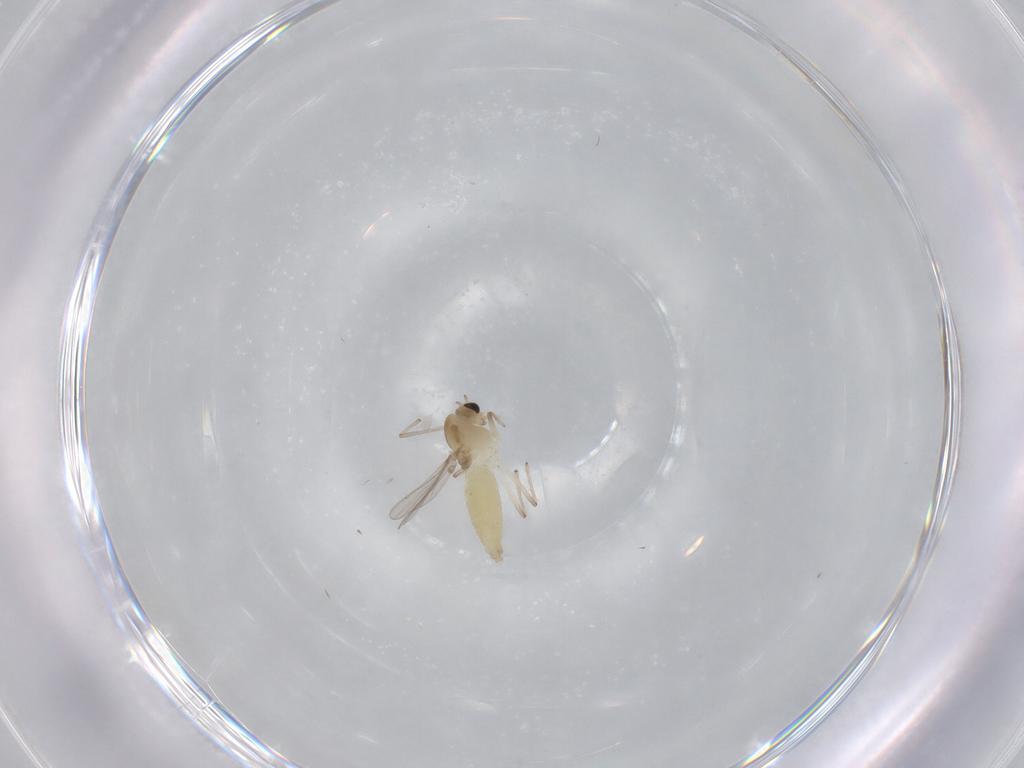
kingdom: Animalia
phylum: Arthropoda
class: Insecta
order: Diptera
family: Chironomidae
